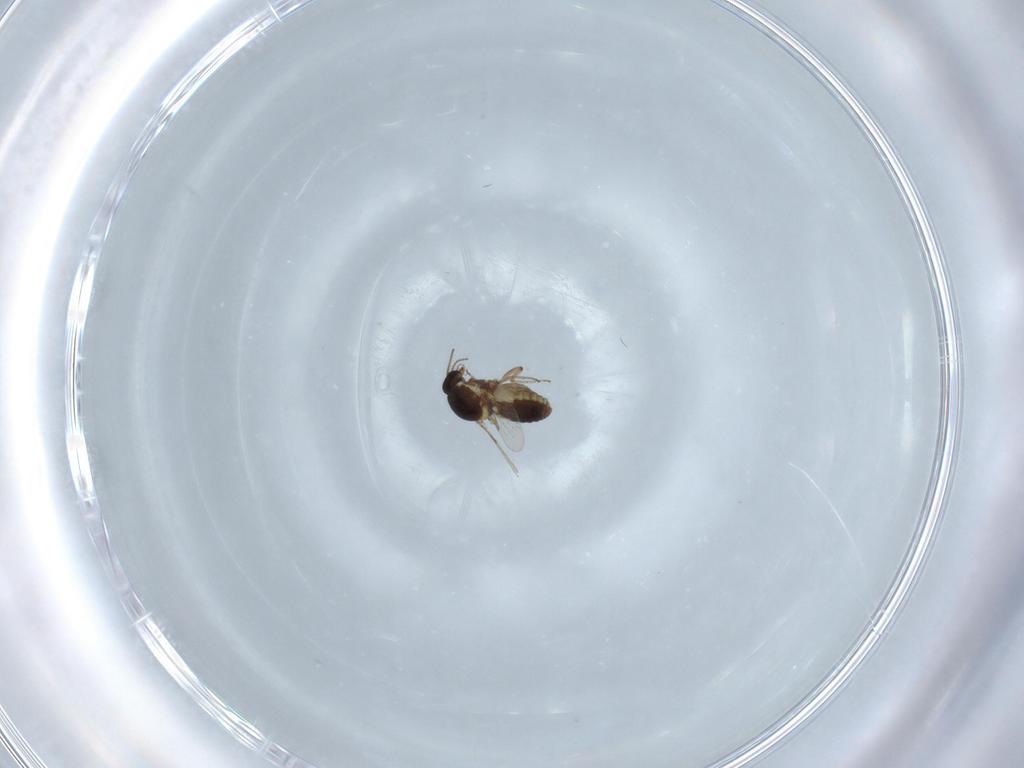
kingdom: Animalia
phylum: Arthropoda
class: Insecta
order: Diptera
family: Ceratopogonidae
